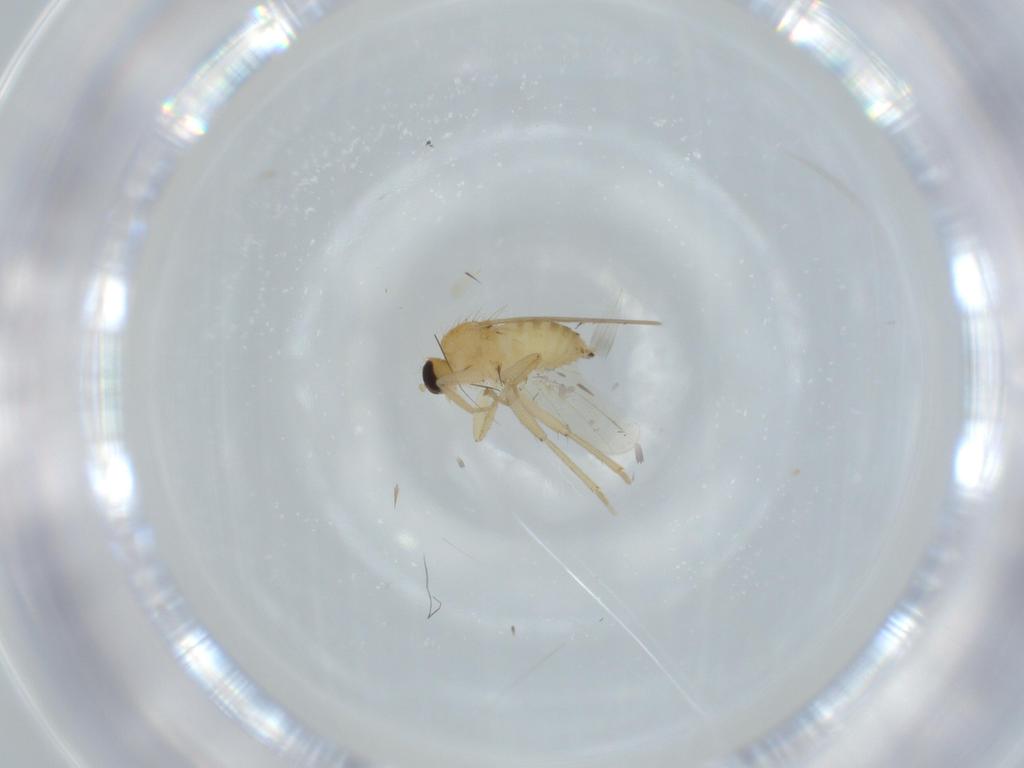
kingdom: Animalia
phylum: Arthropoda
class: Insecta
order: Diptera
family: Hybotidae
